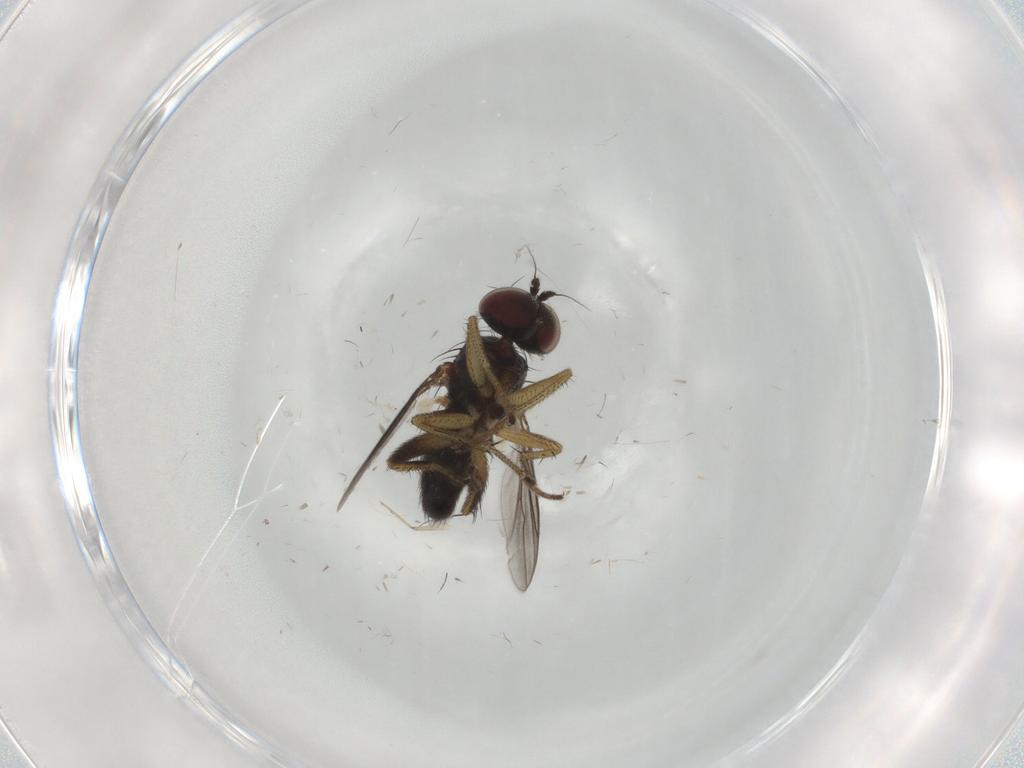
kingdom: Animalia
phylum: Arthropoda
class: Insecta
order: Diptera
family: Dolichopodidae
